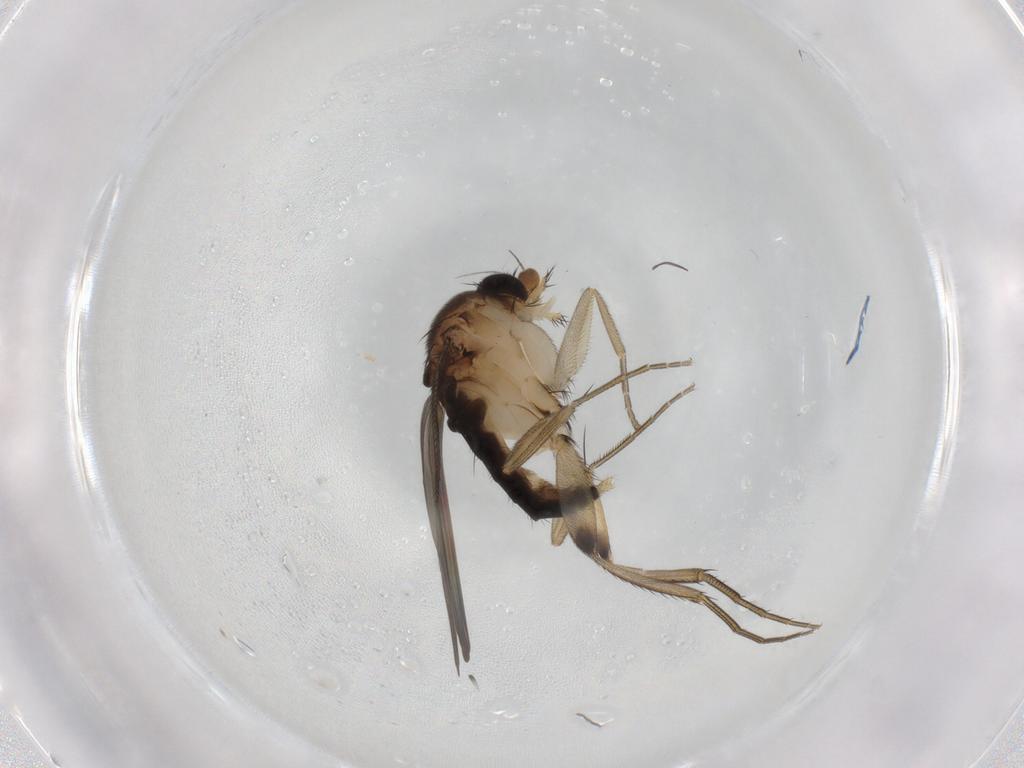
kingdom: Animalia
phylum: Arthropoda
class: Insecta
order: Diptera
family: Phoridae
